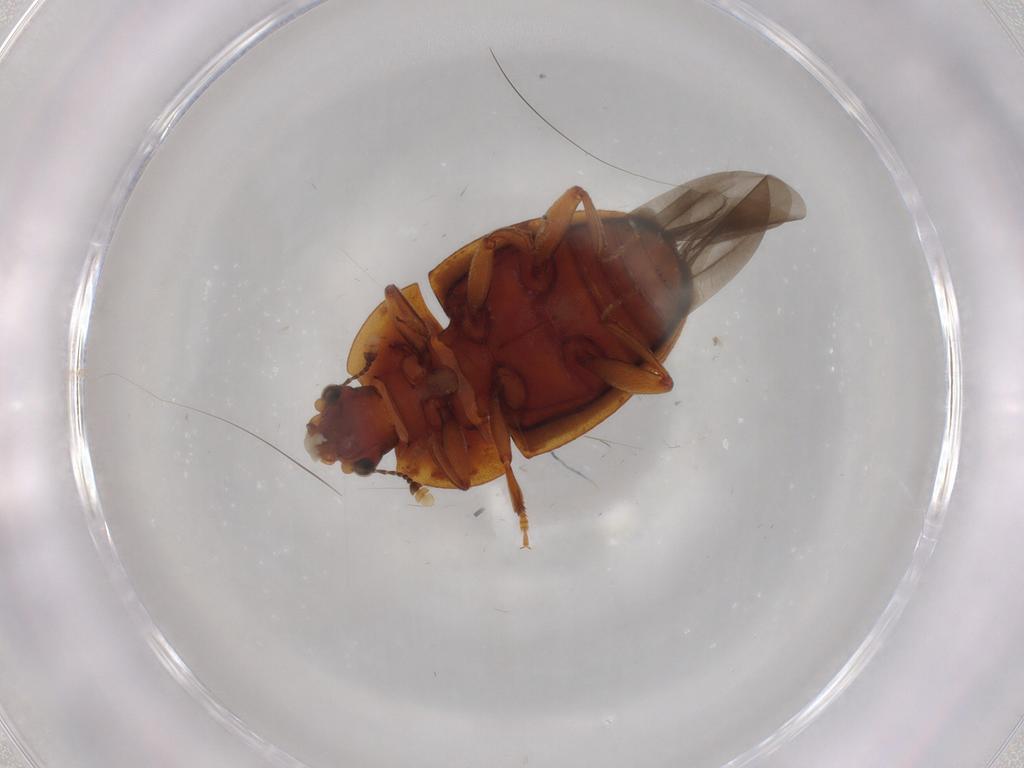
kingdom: Animalia
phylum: Arthropoda
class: Insecta
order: Coleoptera
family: Nitidulidae
